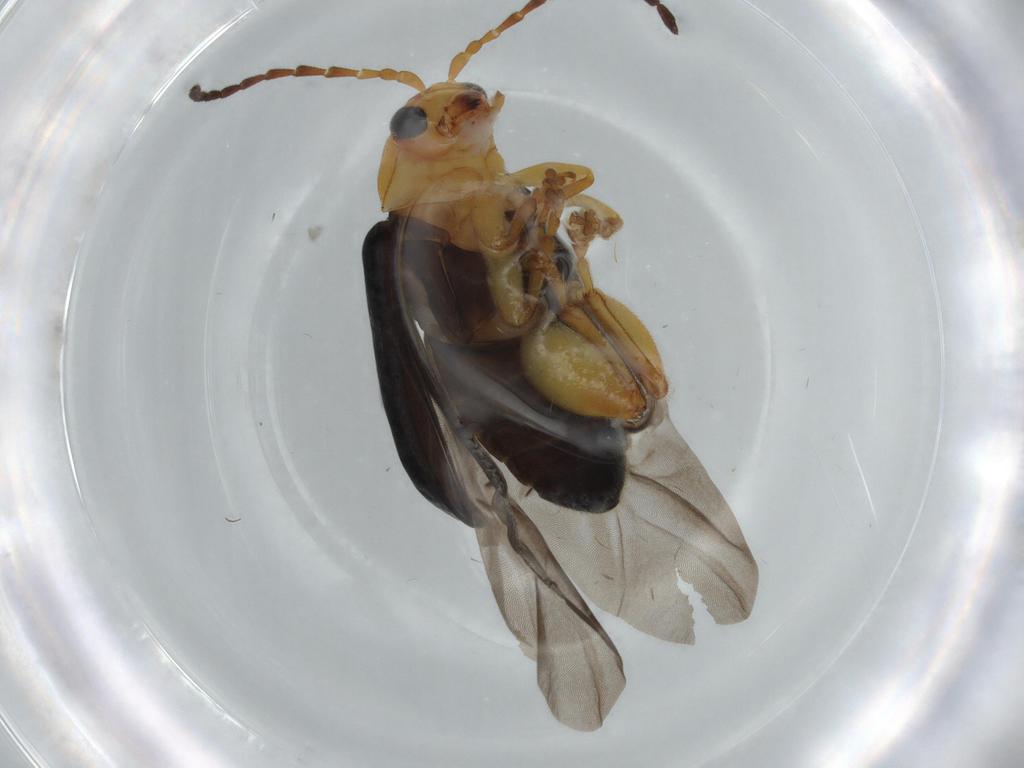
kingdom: Animalia
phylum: Arthropoda
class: Insecta
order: Coleoptera
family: Chrysomelidae
